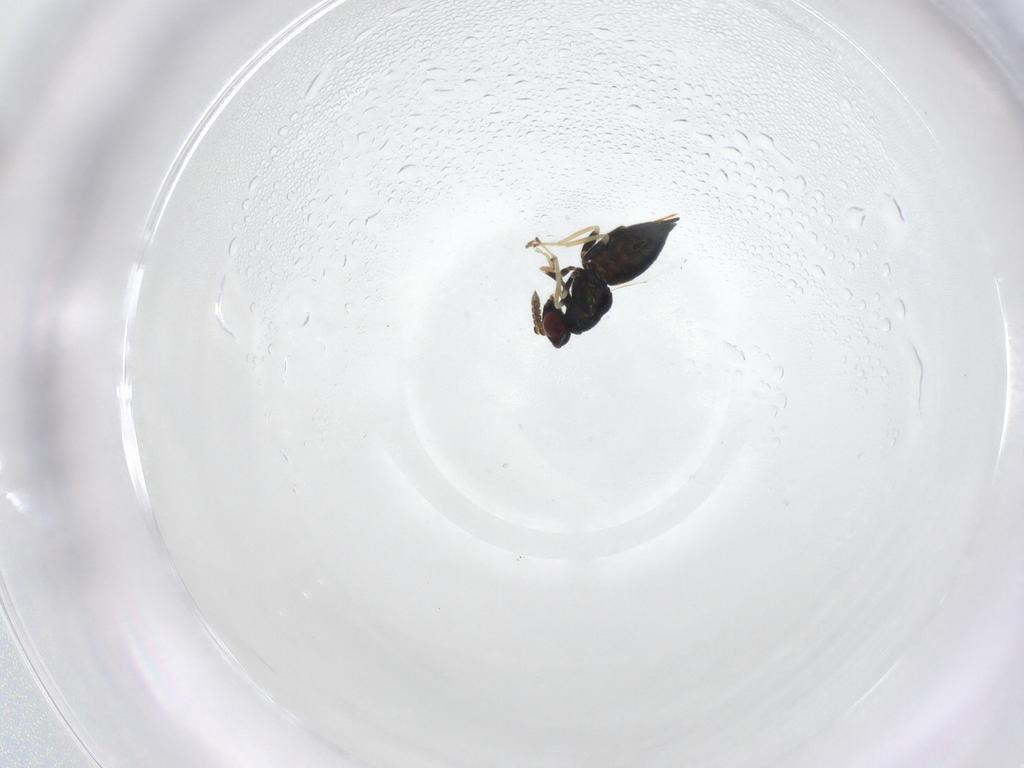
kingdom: Animalia
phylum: Arthropoda
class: Insecta
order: Hymenoptera
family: Eulophidae
